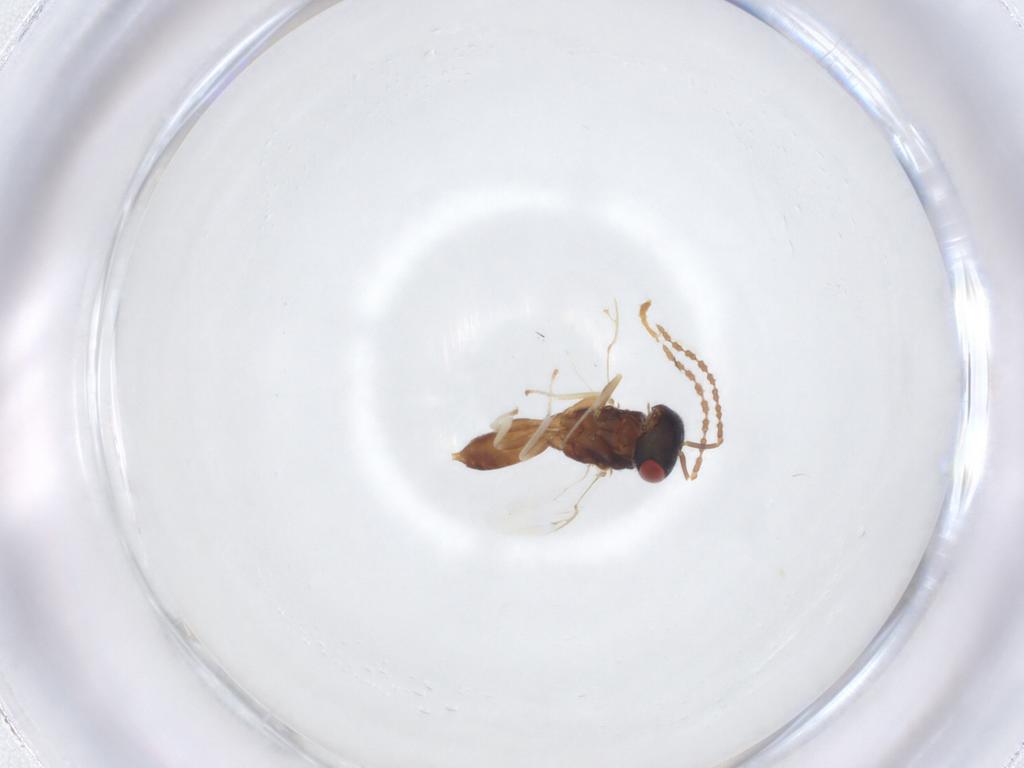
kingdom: Animalia
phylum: Arthropoda
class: Insecta
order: Hymenoptera
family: Pteromalidae
